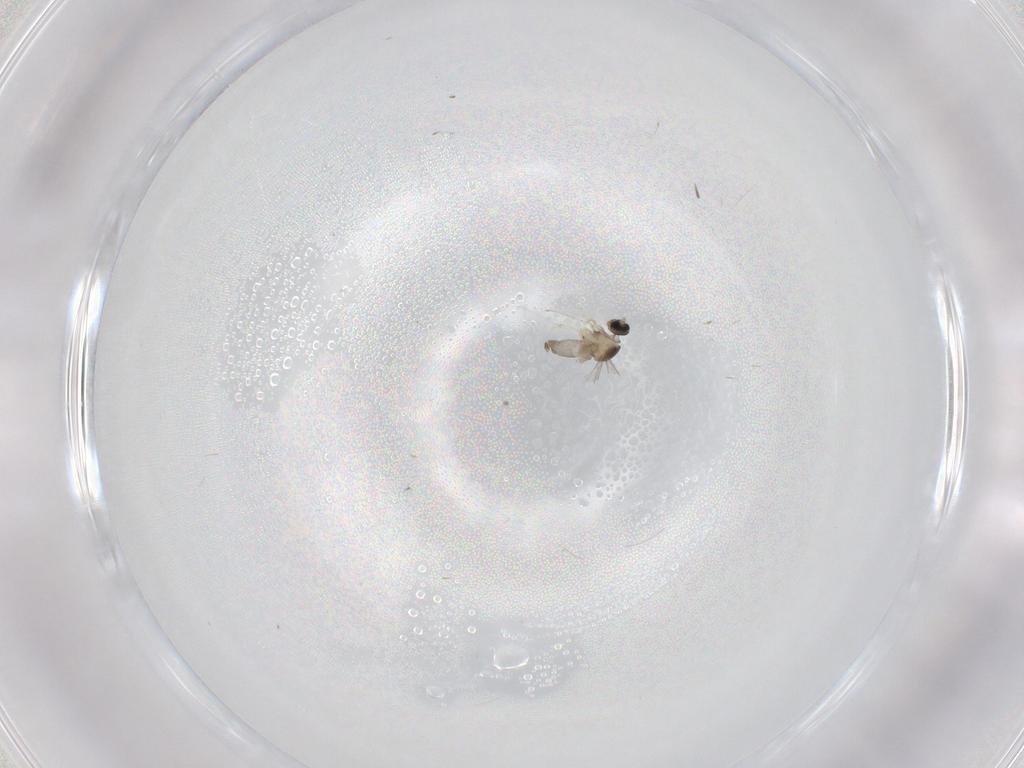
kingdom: Animalia
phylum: Arthropoda
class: Insecta
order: Diptera
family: Cecidomyiidae
